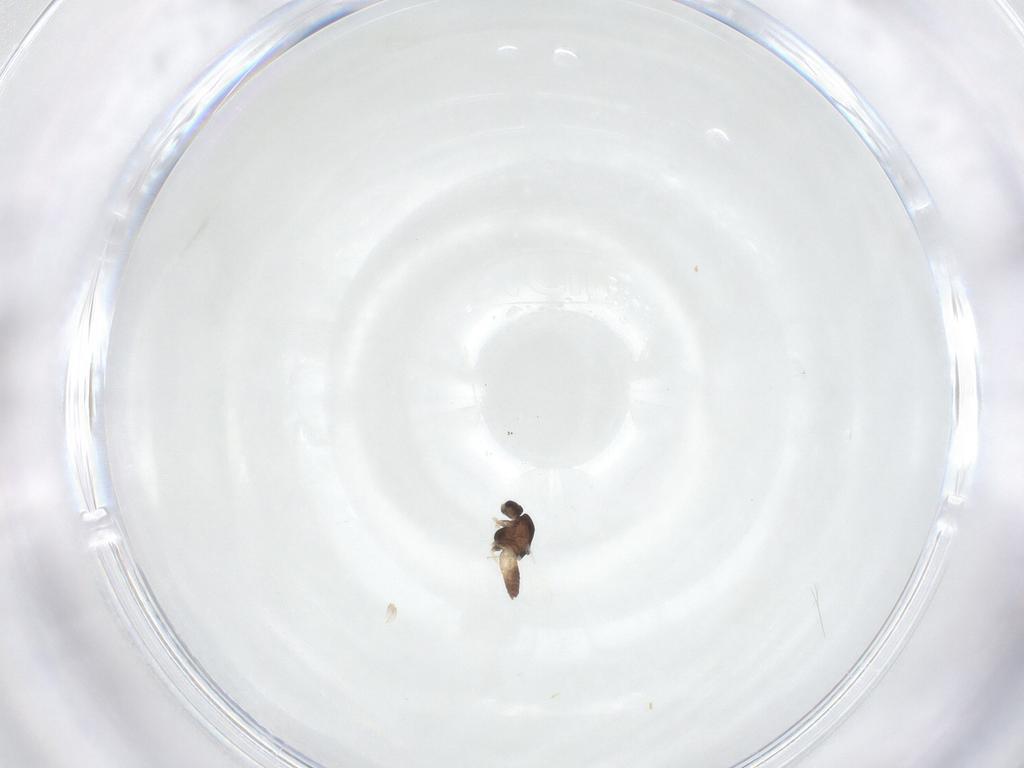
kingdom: Animalia
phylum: Arthropoda
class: Insecta
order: Diptera
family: Chironomidae
